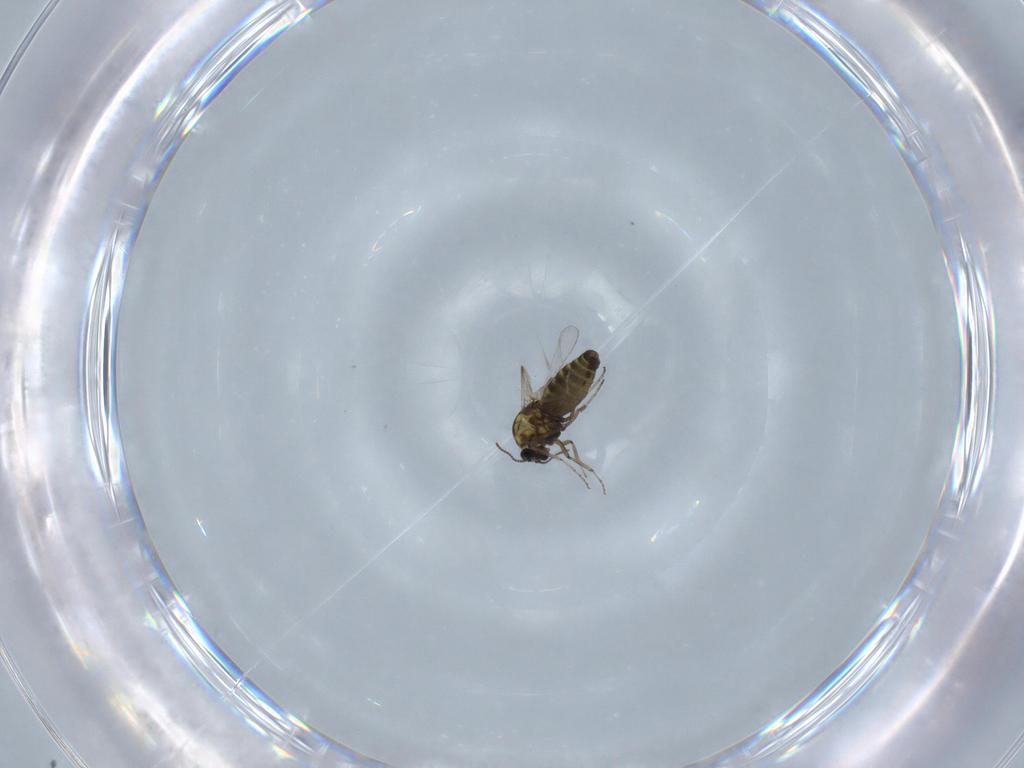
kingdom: Animalia
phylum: Arthropoda
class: Insecta
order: Diptera
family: Ceratopogonidae
